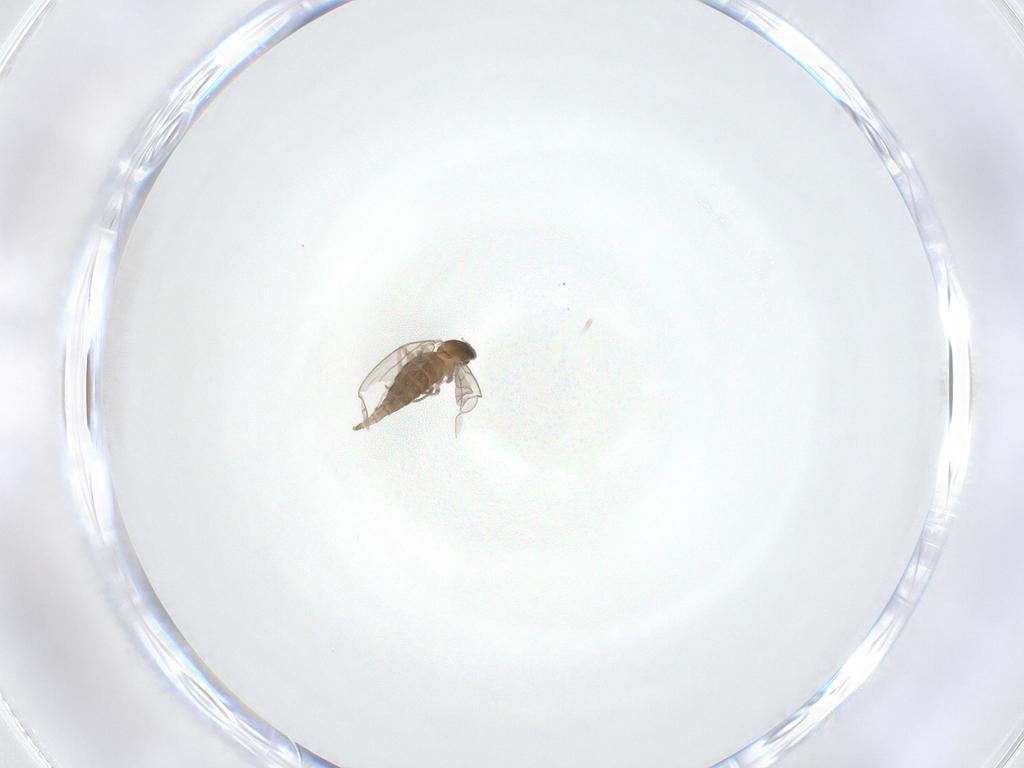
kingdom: Animalia
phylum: Arthropoda
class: Insecta
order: Diptera
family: Cecidomyiidae
